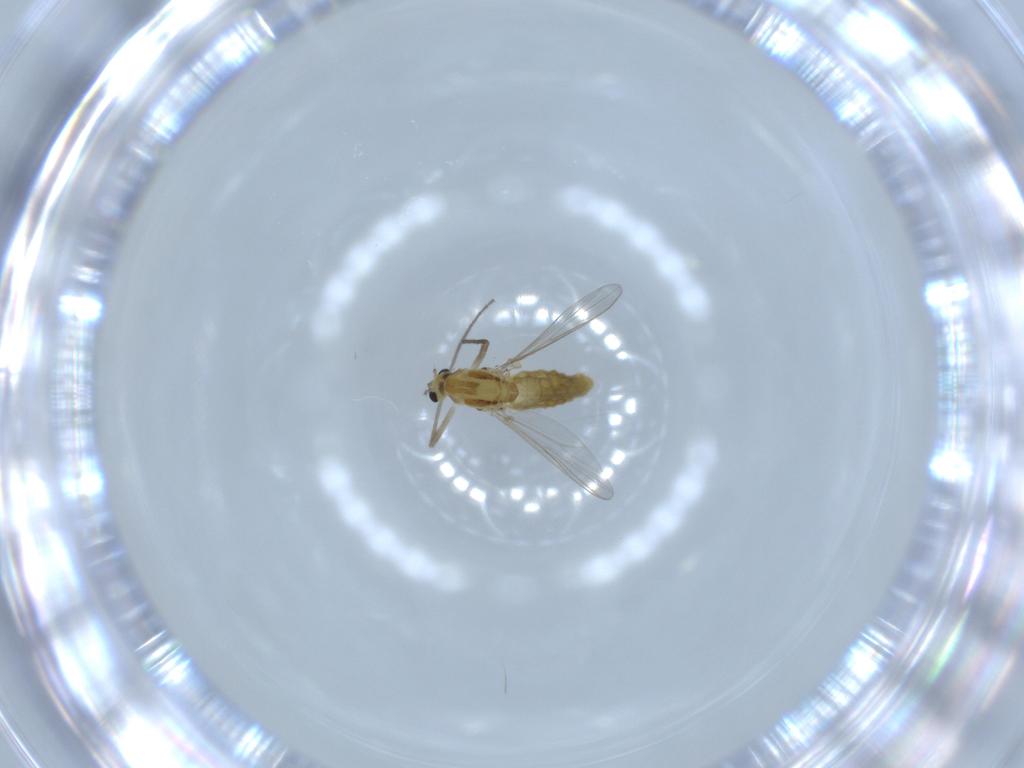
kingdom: Animalia
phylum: Arthropoda
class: Insecta
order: Diptera
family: Chironomidae
